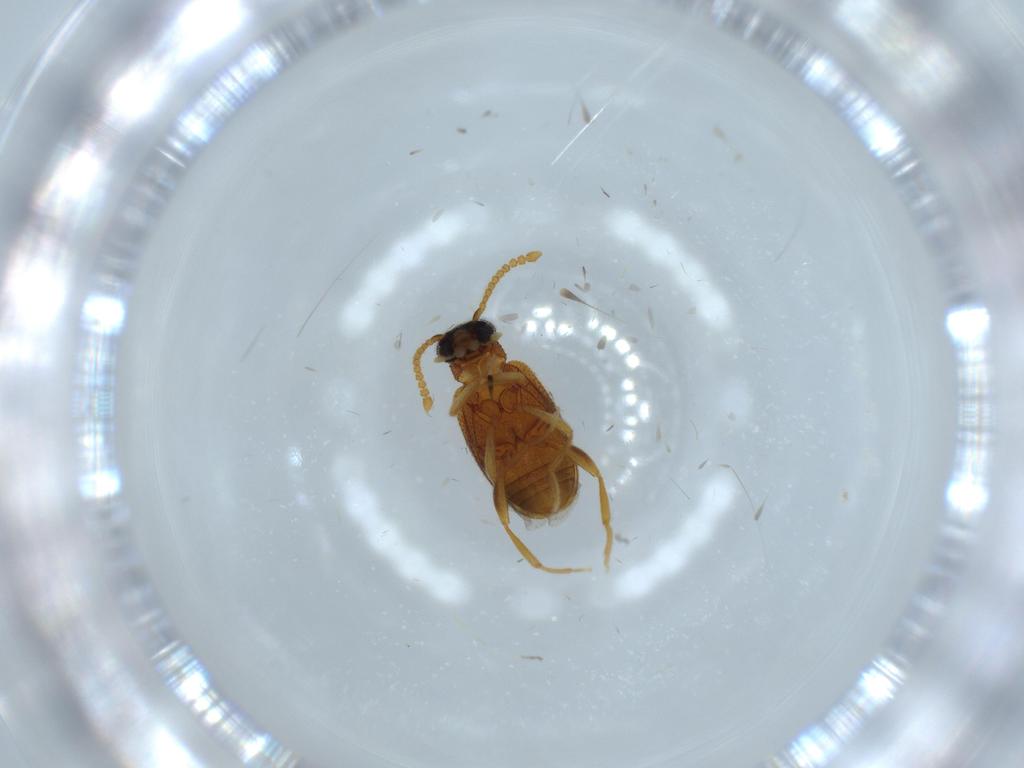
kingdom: Animalia
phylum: Arthropoda
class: Insecta
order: Coleoptera
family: Aderidae
